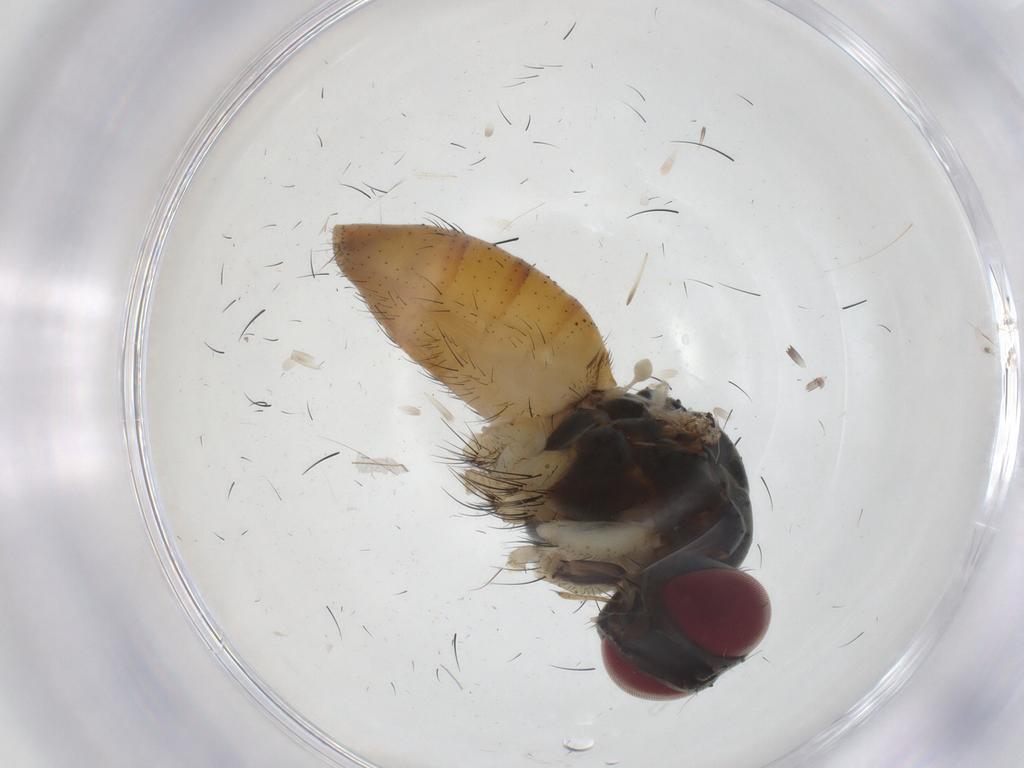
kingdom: Animalia
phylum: Arthropoda
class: Insecta
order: Diptera
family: Muscidae
